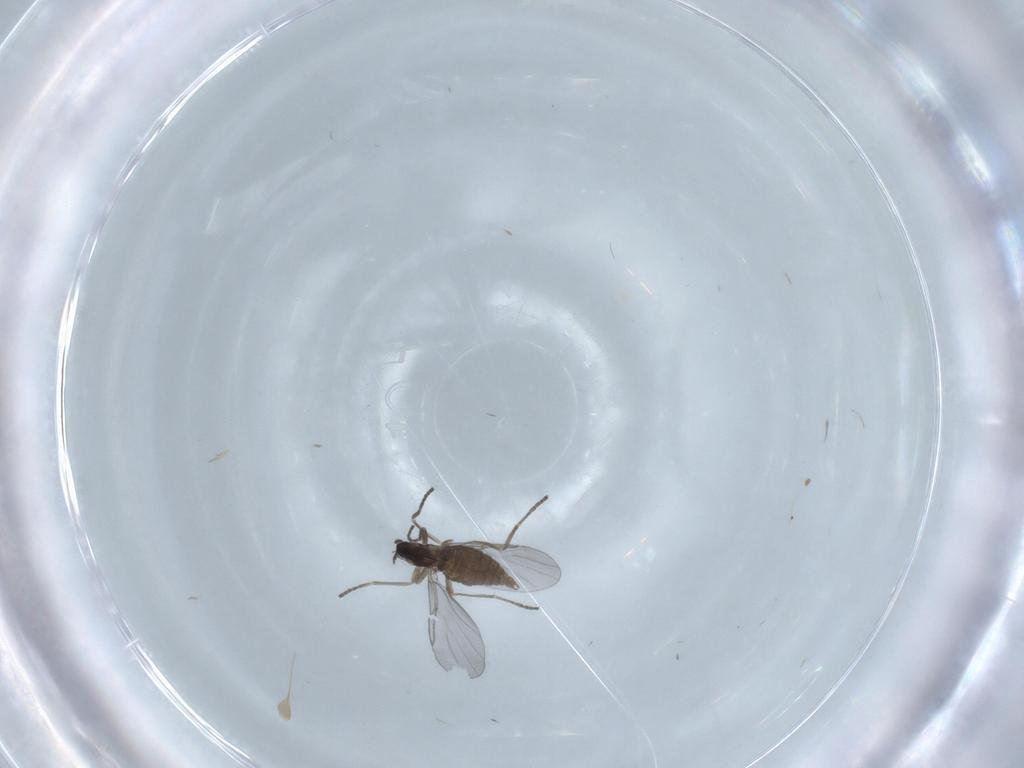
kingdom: Animalia
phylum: Arthropoda
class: Insecta
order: Diptera
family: Cecidomyiidae
